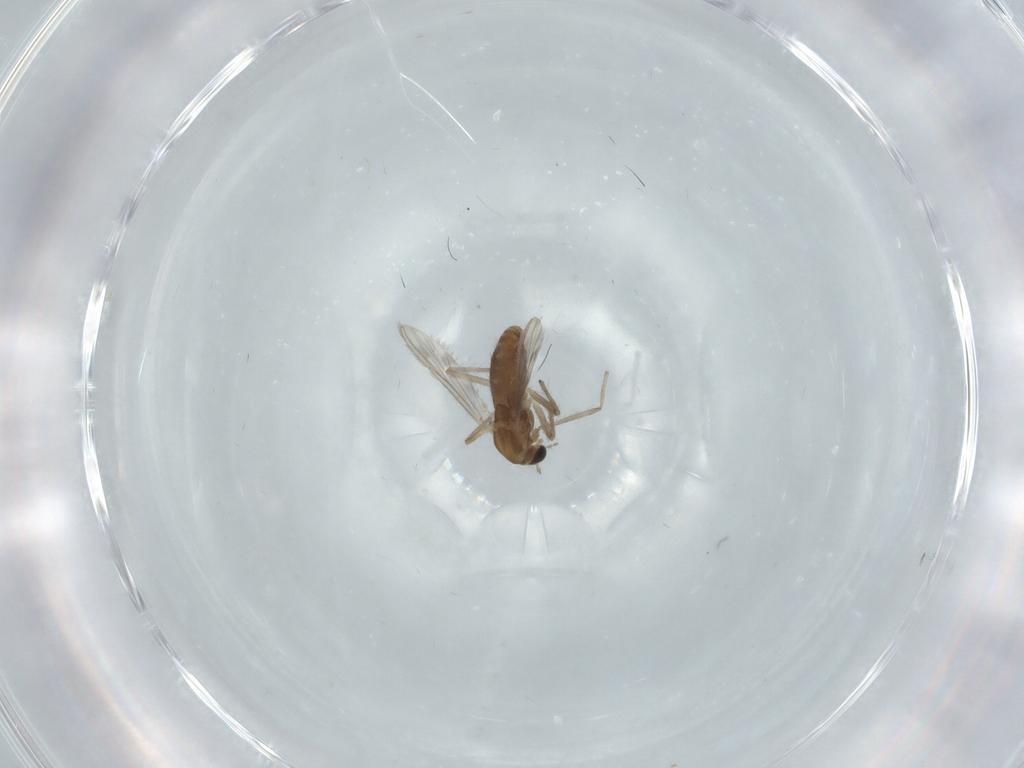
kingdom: Animalia
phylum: Arthropoda
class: Insecta
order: Diptera
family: Chironomidae
